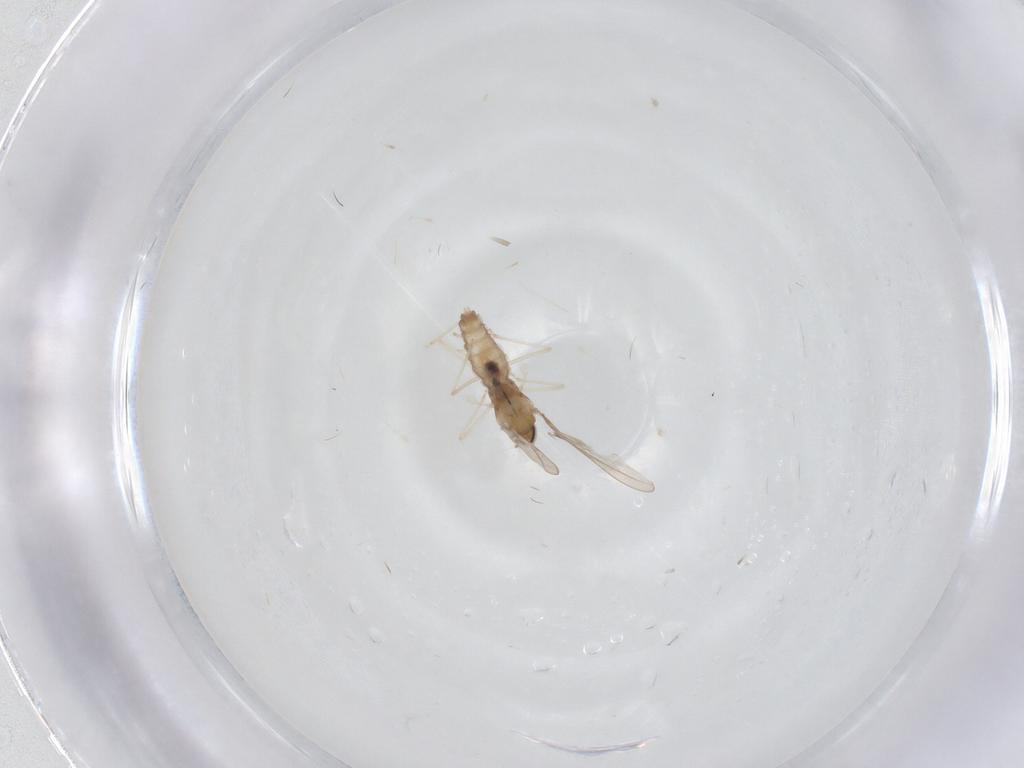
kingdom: Animalia
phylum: Arthropoda
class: Insecta
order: Diptera
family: Cecidomyiidae
